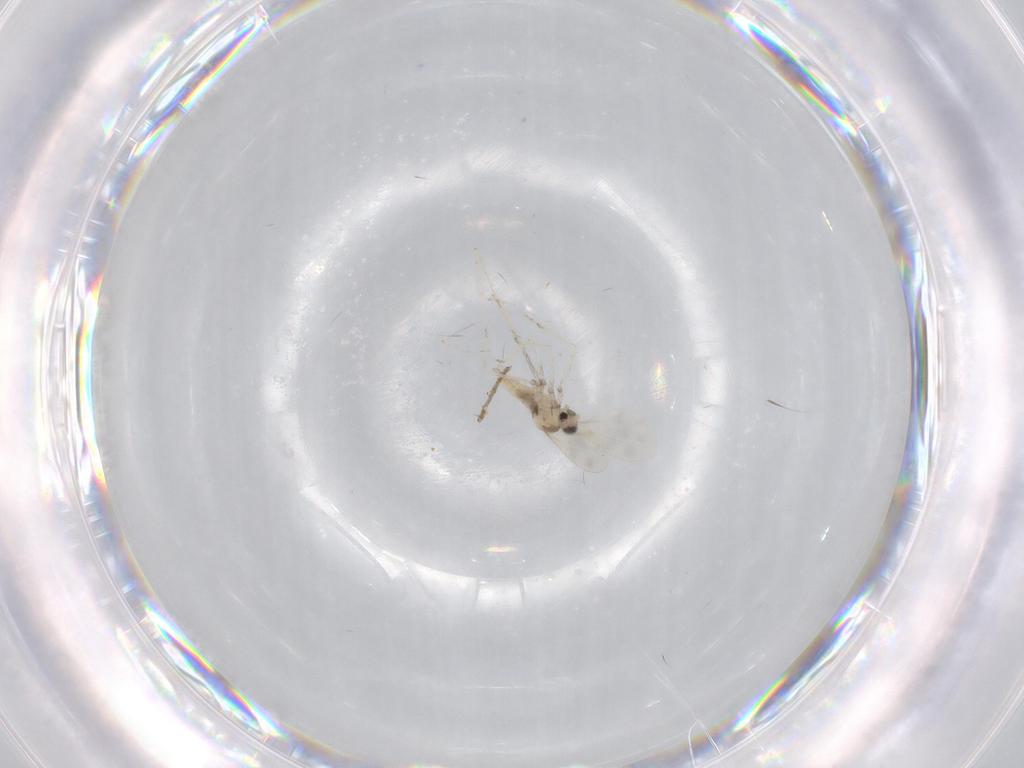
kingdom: Animalia
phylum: Arthropoda
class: Insecta
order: Diptera
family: Cecidomyiidae
